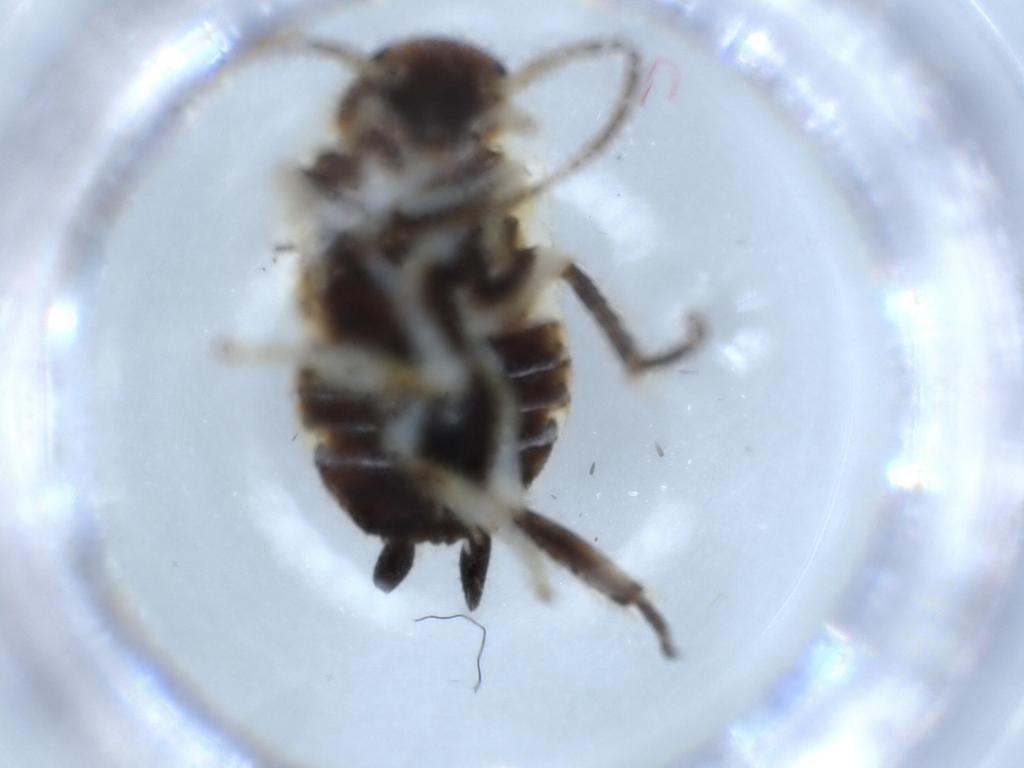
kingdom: Animalia
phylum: Arthropoda
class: Insecta
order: Blattodea
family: Ectobiidae
